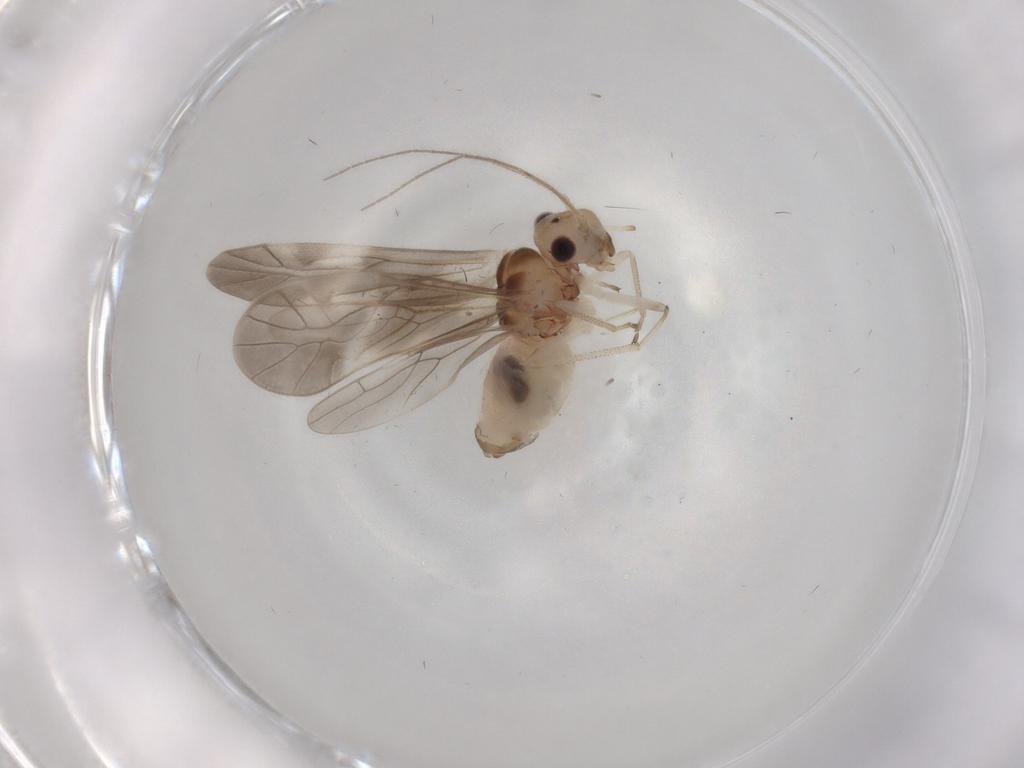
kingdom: Animalia
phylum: Arthropoda
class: Insecta
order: Psocodea
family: Caeciliusidae
